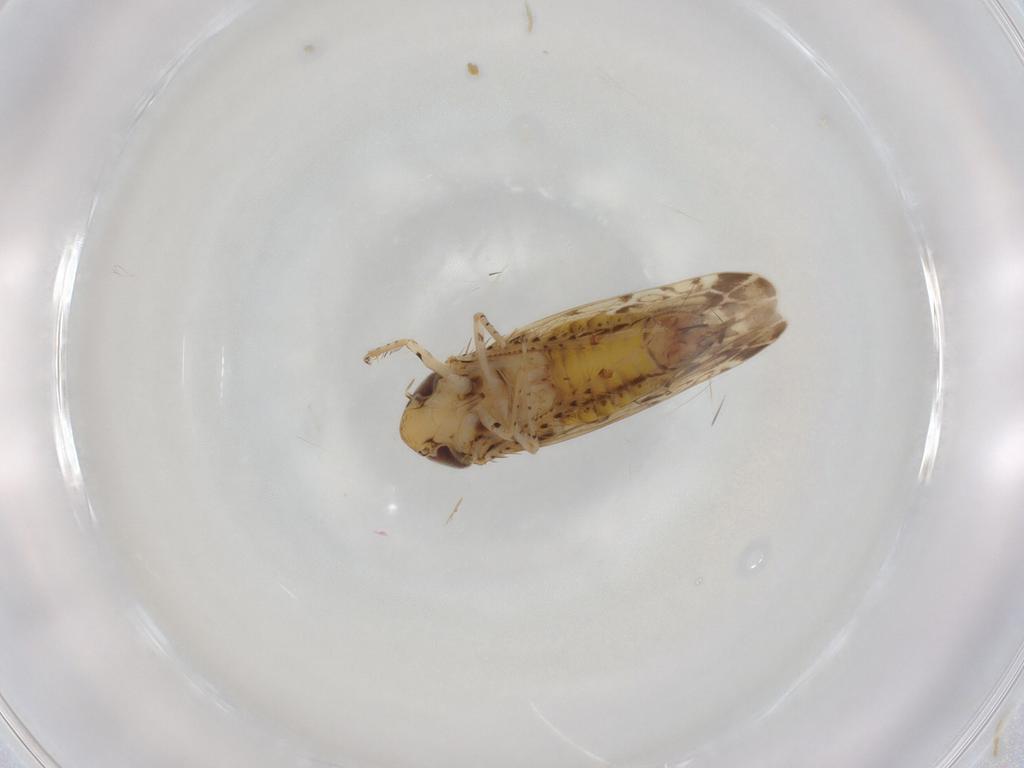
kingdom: Animalia
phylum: Arthropoda
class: Insecta
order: Hemiptera
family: Cicadellidae
